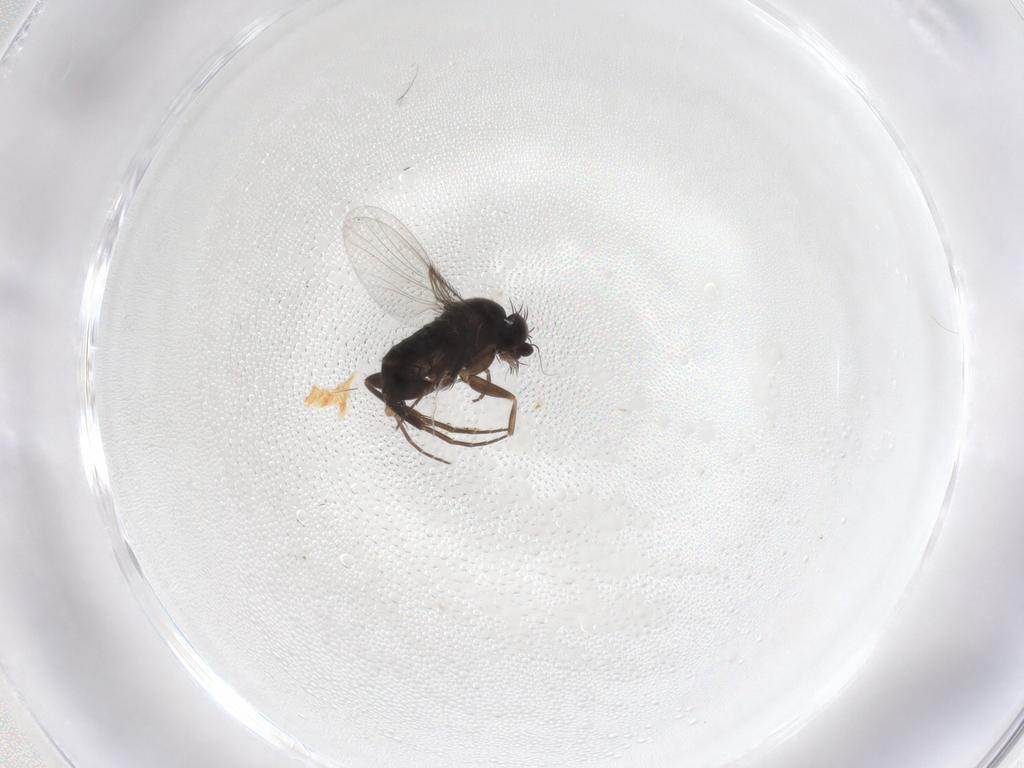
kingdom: Animalia
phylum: Arthropoda
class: Insecta
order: Diptera
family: Phoridae
